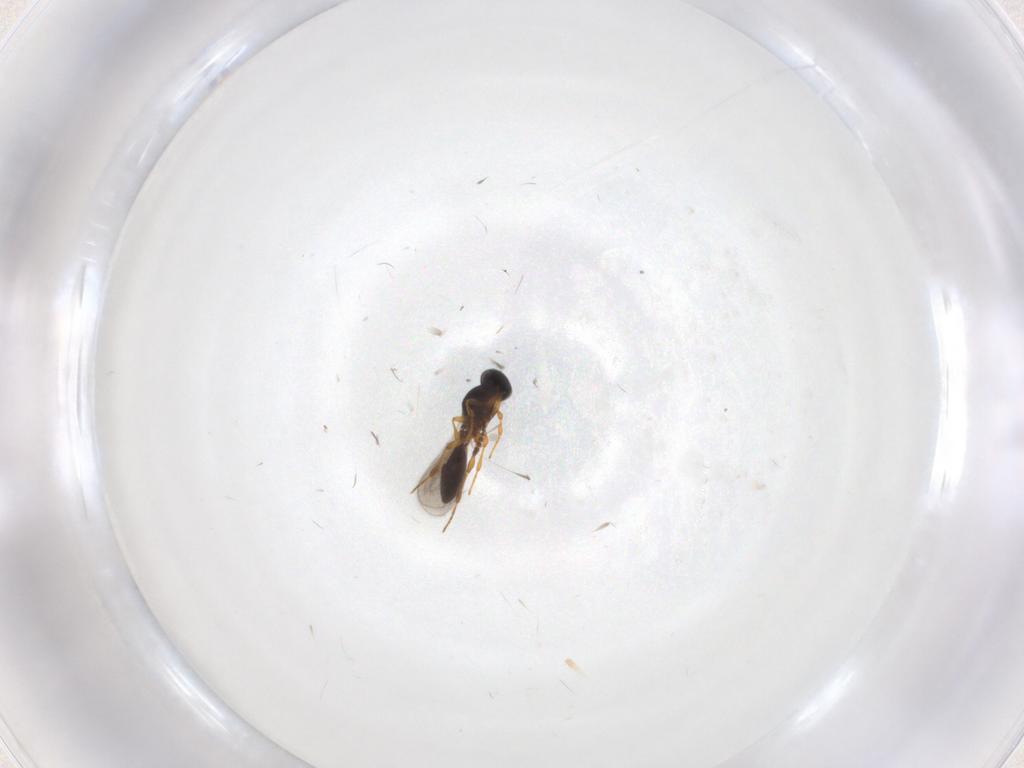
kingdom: Animalia
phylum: Arthropoda
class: Insecta
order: Hymenoptera
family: Platygastridae
